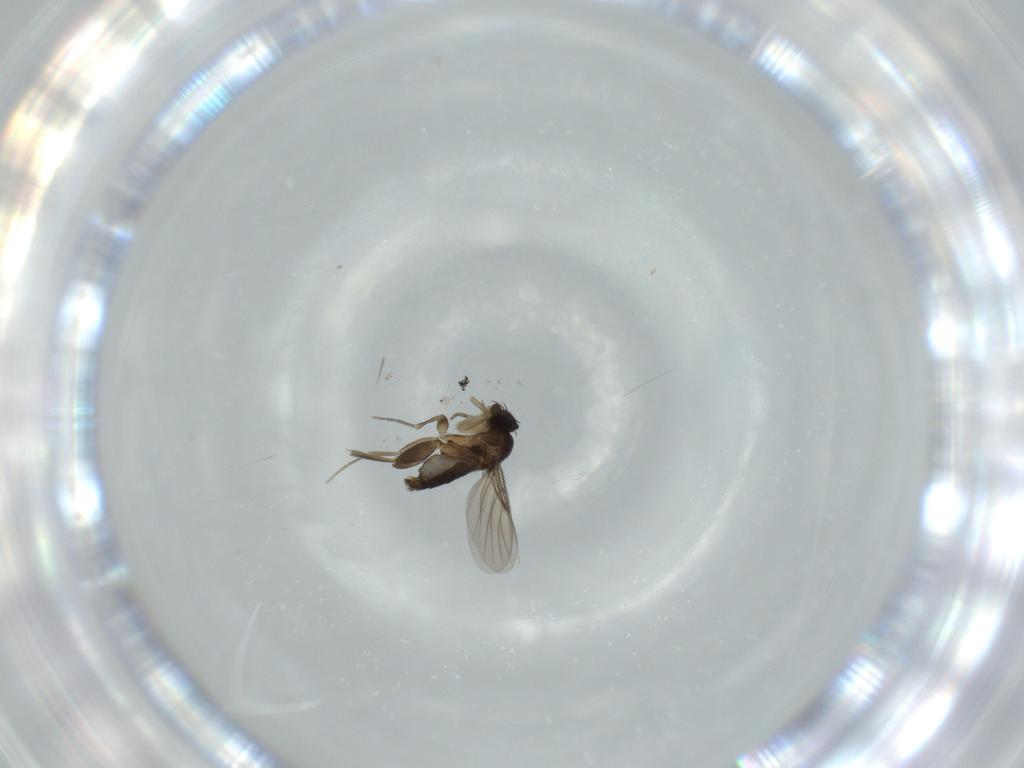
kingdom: Animalia
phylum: Arthropoda
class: Insecta
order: Diptera
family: Phoridae
